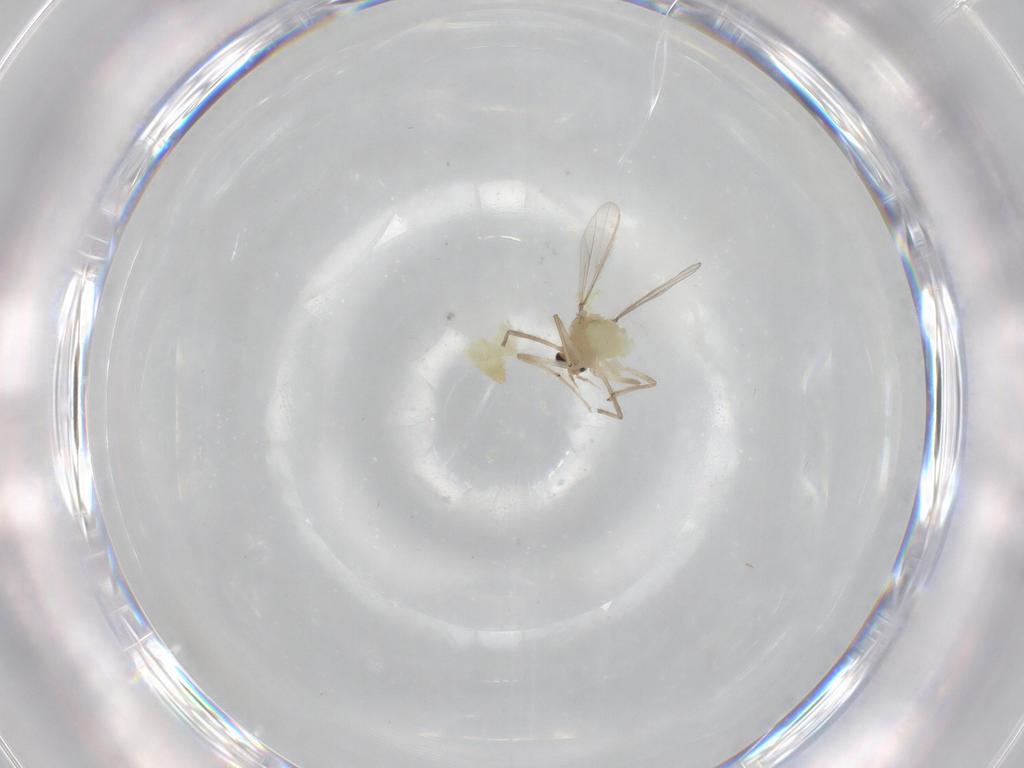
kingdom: Animalia
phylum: Arthropoda
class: Insecta
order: Diptera
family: Chironomidae
